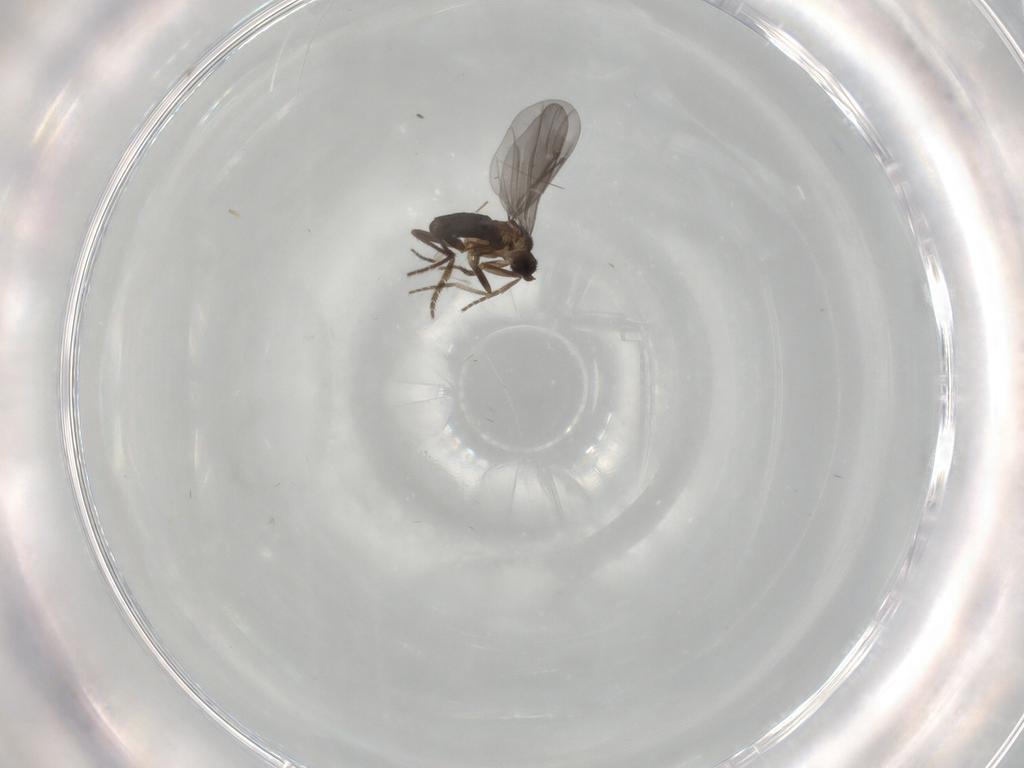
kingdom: Animalia
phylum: Arthropoda
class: Insecta
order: Diptera
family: Phoridae
